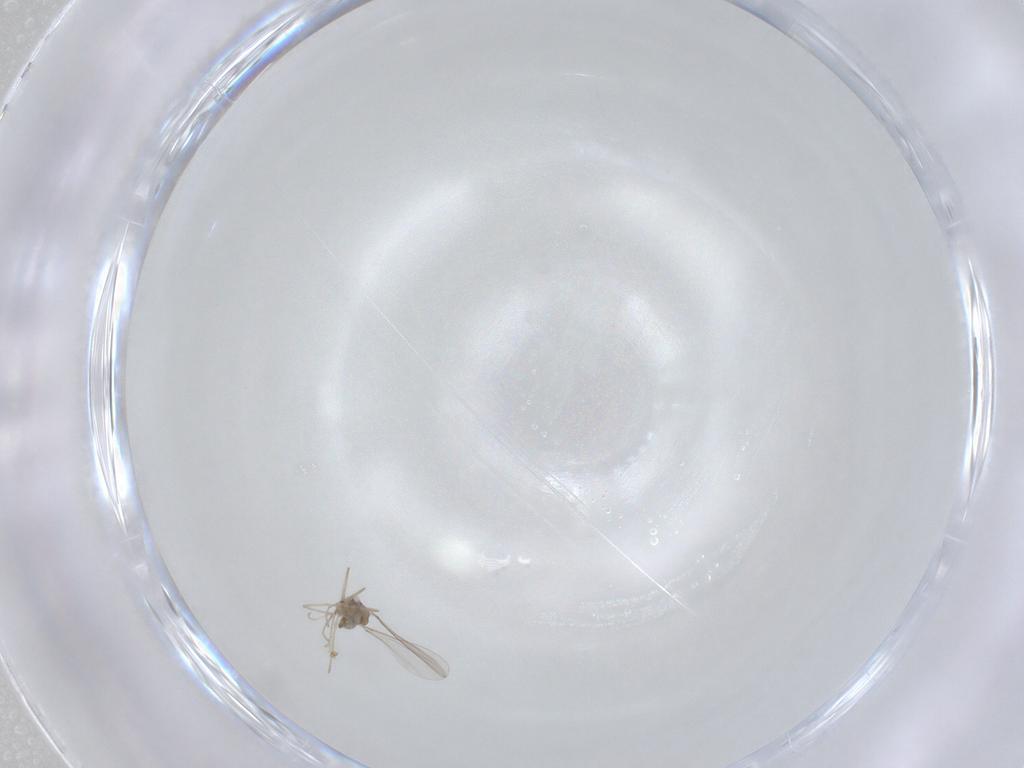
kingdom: Animalia
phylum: Arthropoda
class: Insecta
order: Diptera
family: Cecidomyiidae
